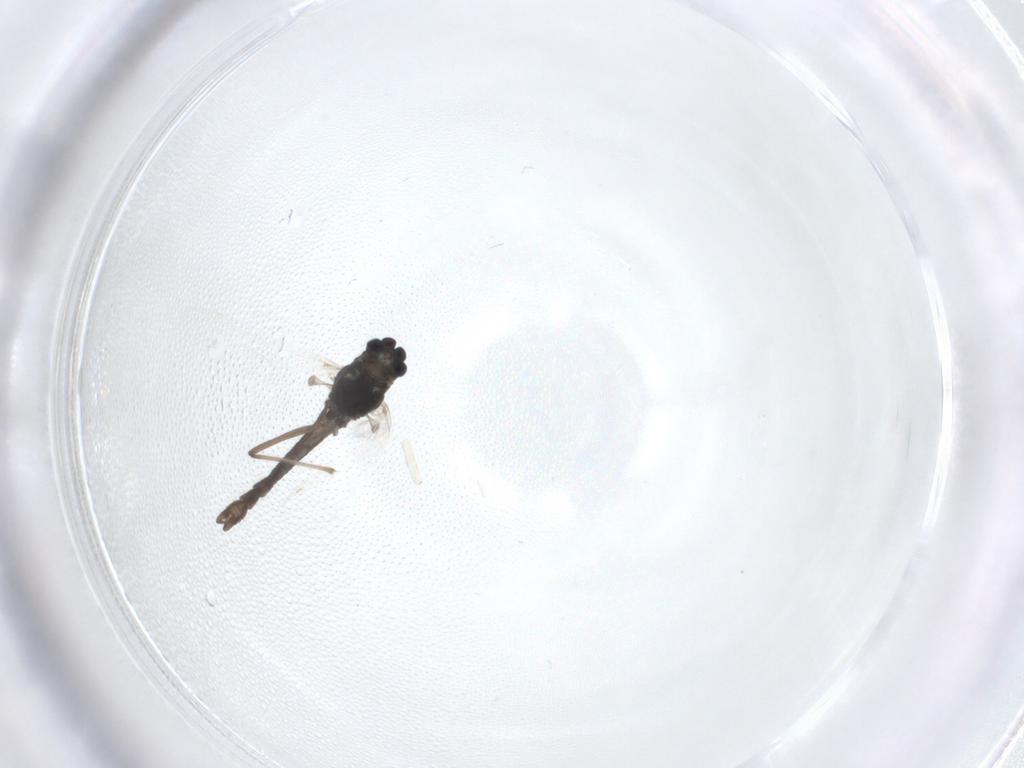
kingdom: Animalia
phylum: Arthropoda
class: Insecta
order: Diptera
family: Chironomidae
